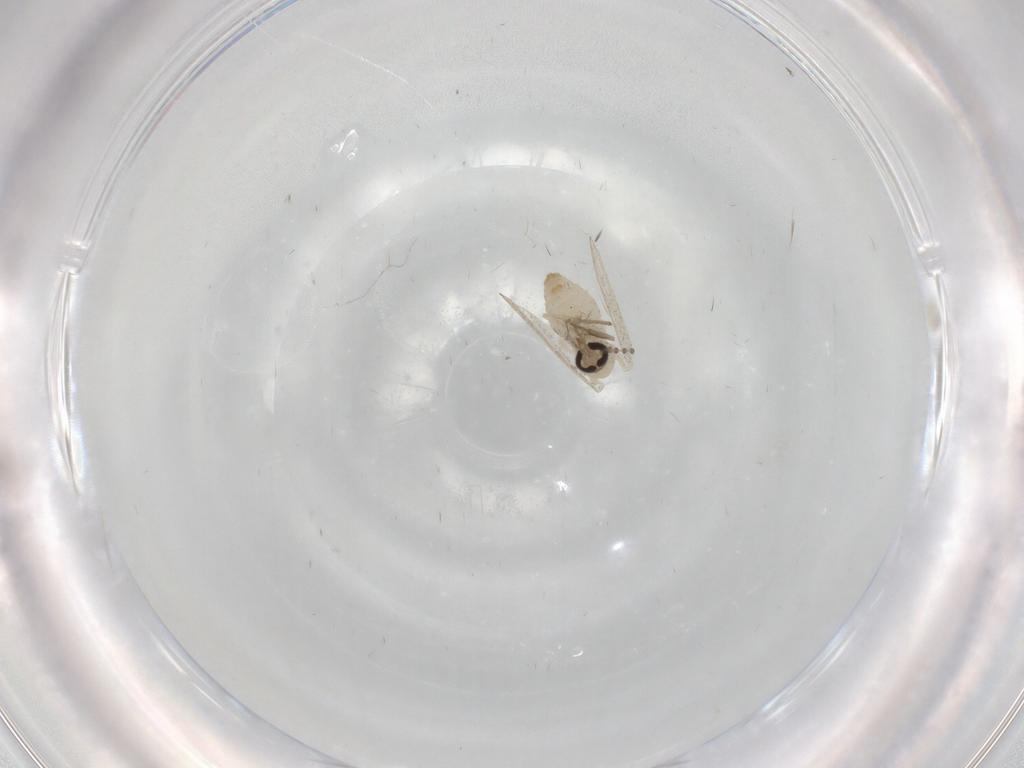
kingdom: Animalia
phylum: Arthropoda
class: Insecta
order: Diptera
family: Psychodidae
